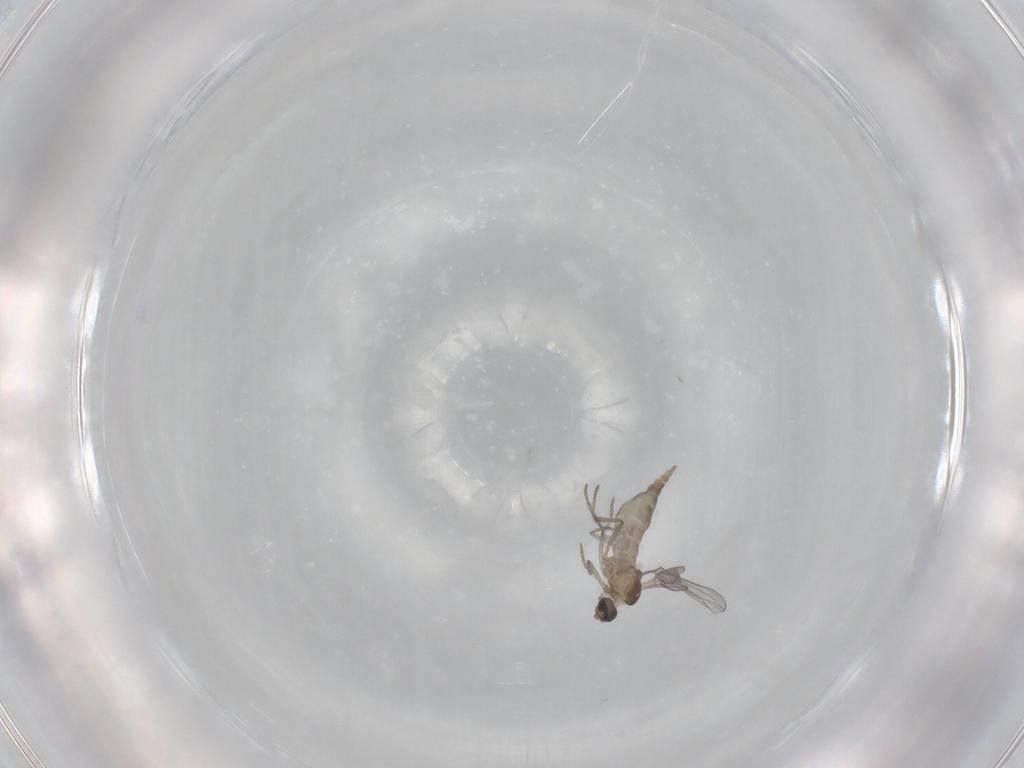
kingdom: Animalia
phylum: Arthropoda
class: Insecta
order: Diptera
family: Cecidomyiidae
